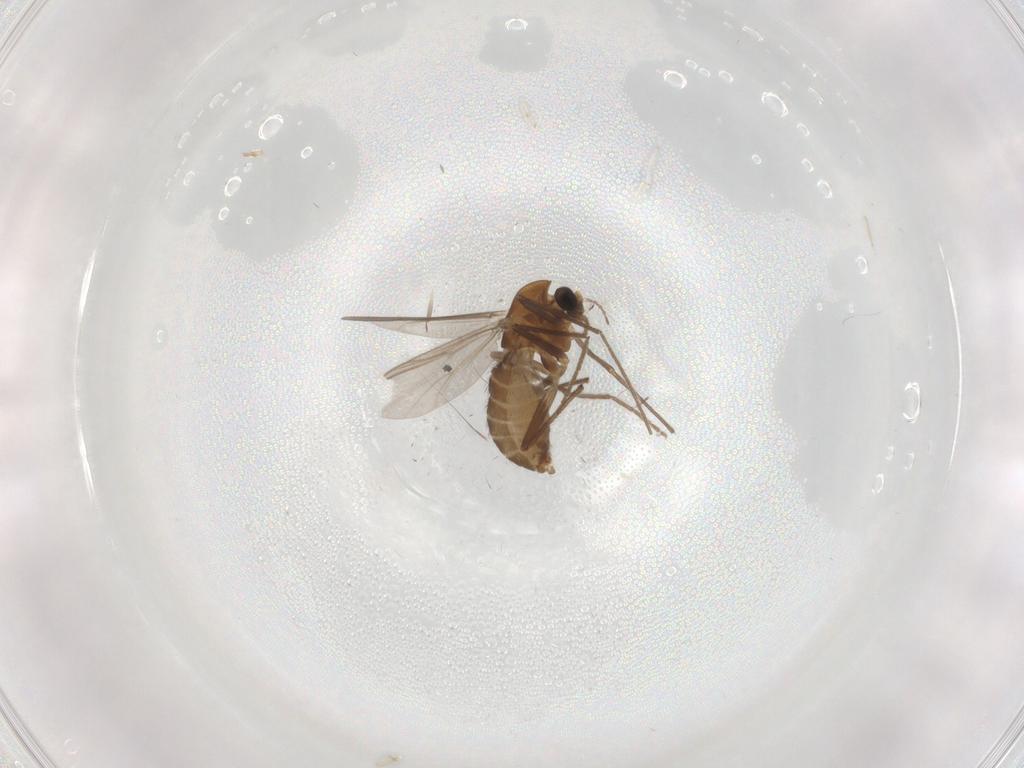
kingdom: Animalia
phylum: Arthropoda
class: Insecta
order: Diptera
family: Chironomidae
